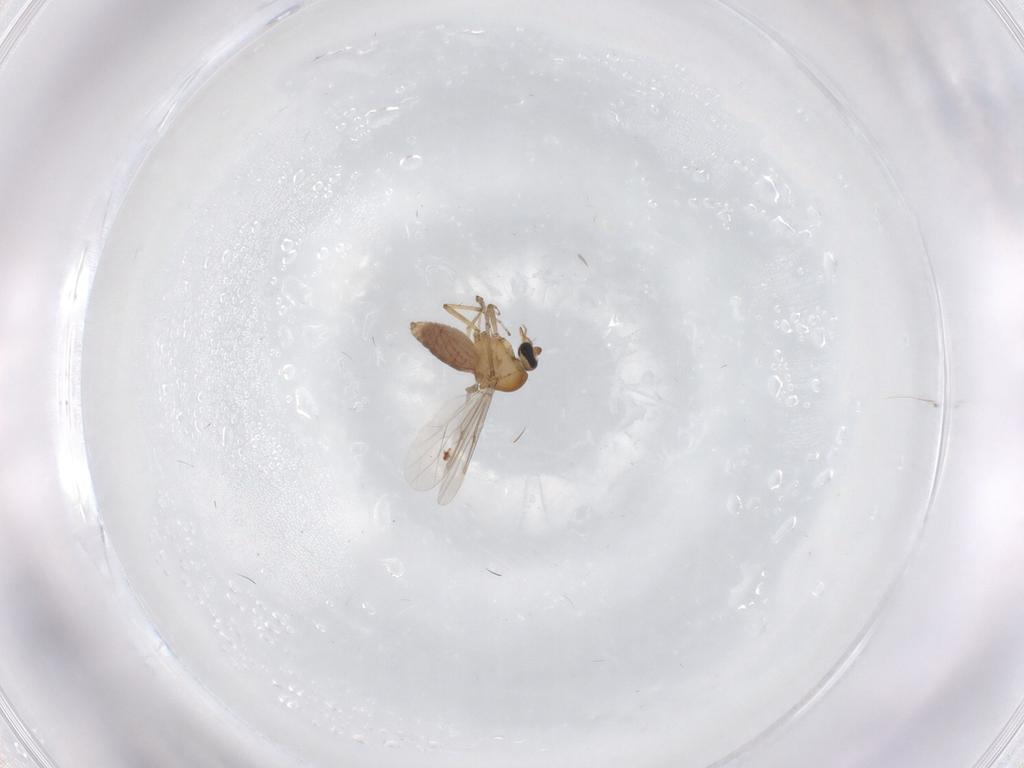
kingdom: Animalia
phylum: Arthropoda
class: Insecta
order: Diptera
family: Ceratopogonidae
